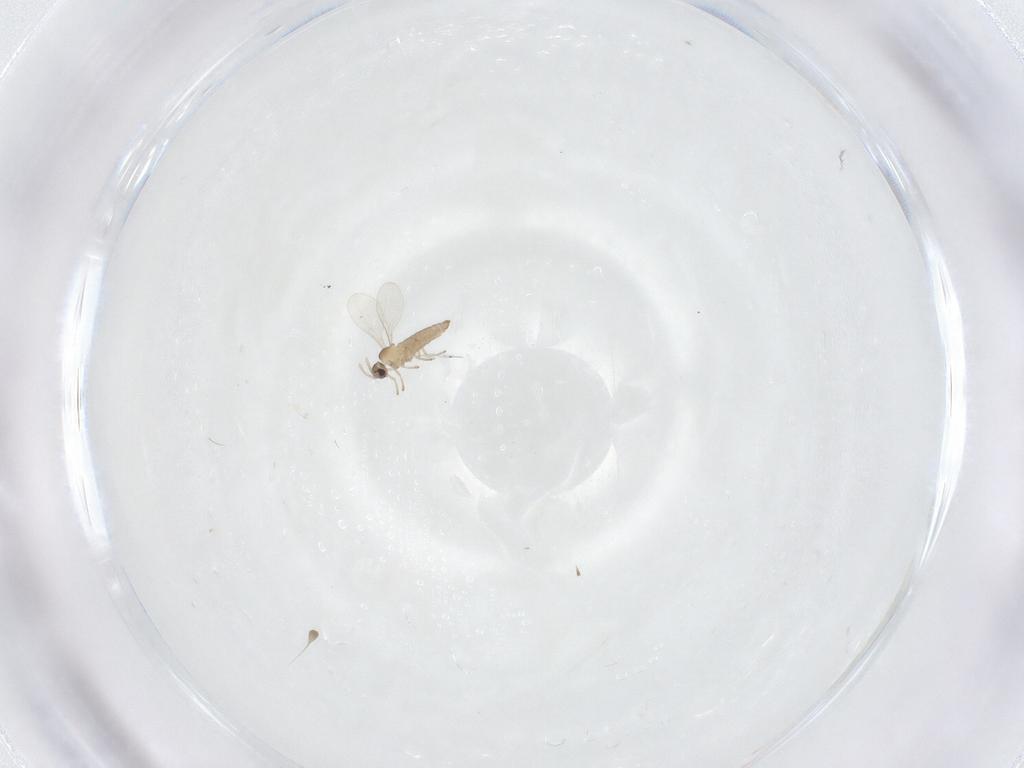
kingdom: Animalia
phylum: Arthropoda
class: Insecta
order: Diptera
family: Cecidomyiidae
